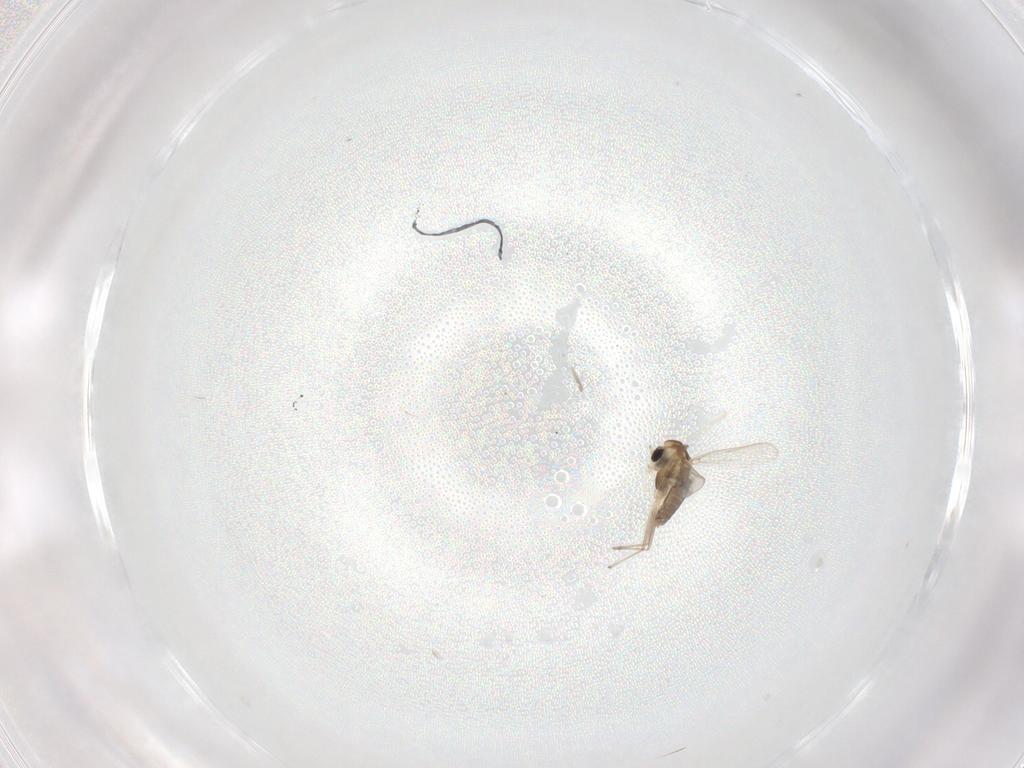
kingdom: Animalia
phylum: Arthropoda
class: Insecta
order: Diptera
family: Chironomidae
